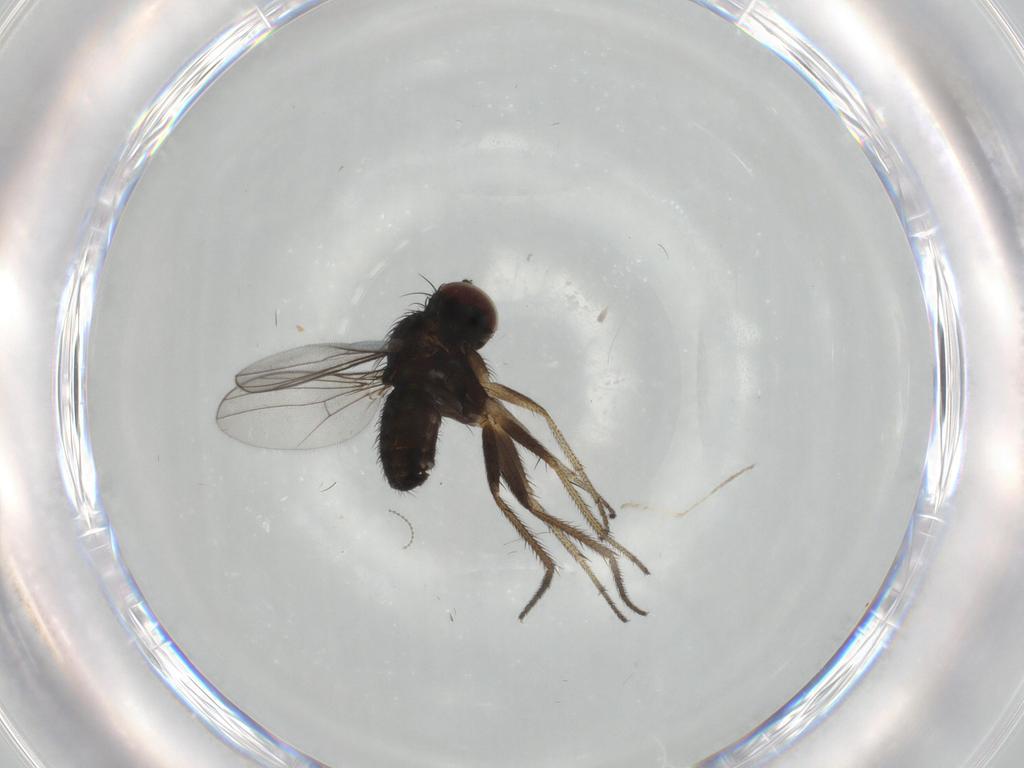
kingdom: Animalia
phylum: Arthropoda
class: Insecta
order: Diptera
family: Cecidomyiidae
